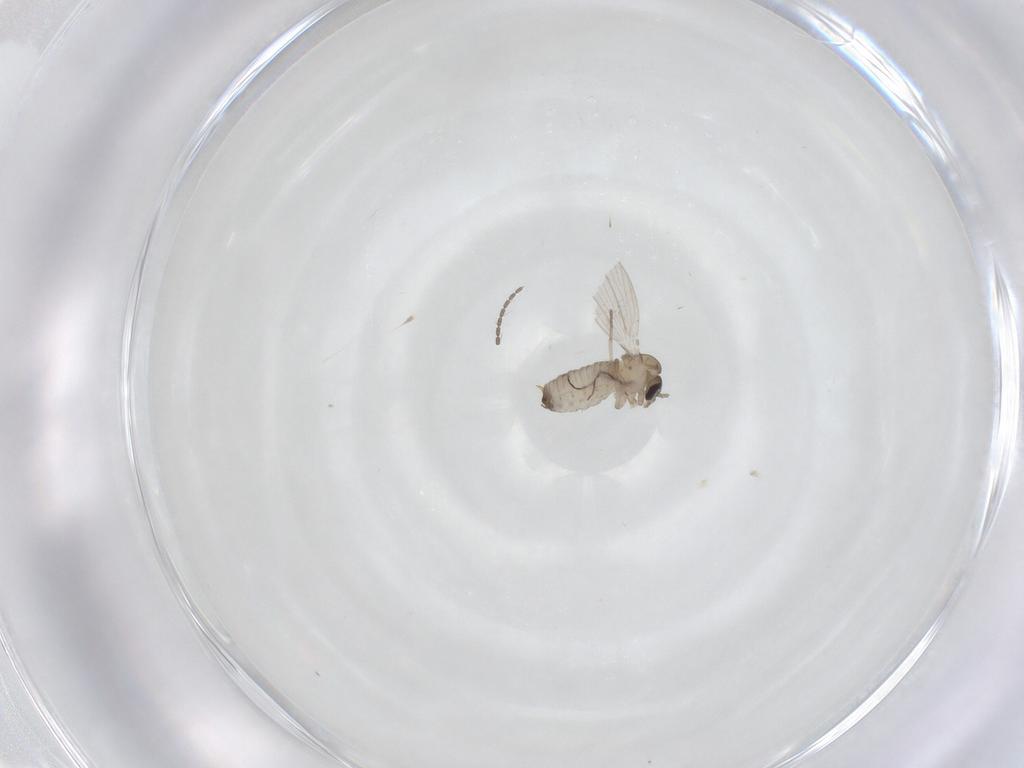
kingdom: Animalia
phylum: Arthropoda
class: Insecta
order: Diptera
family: Psychodidae
